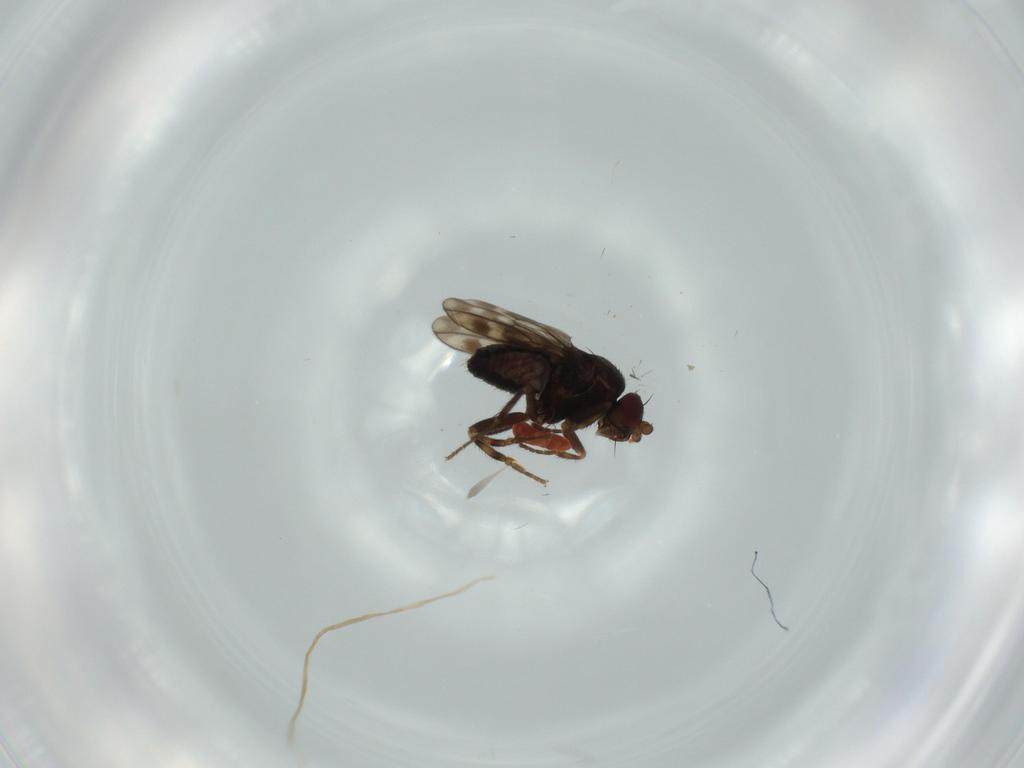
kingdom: Animalia
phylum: Arthropoda
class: Insecta
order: Diptera
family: Sphaeroceridae
